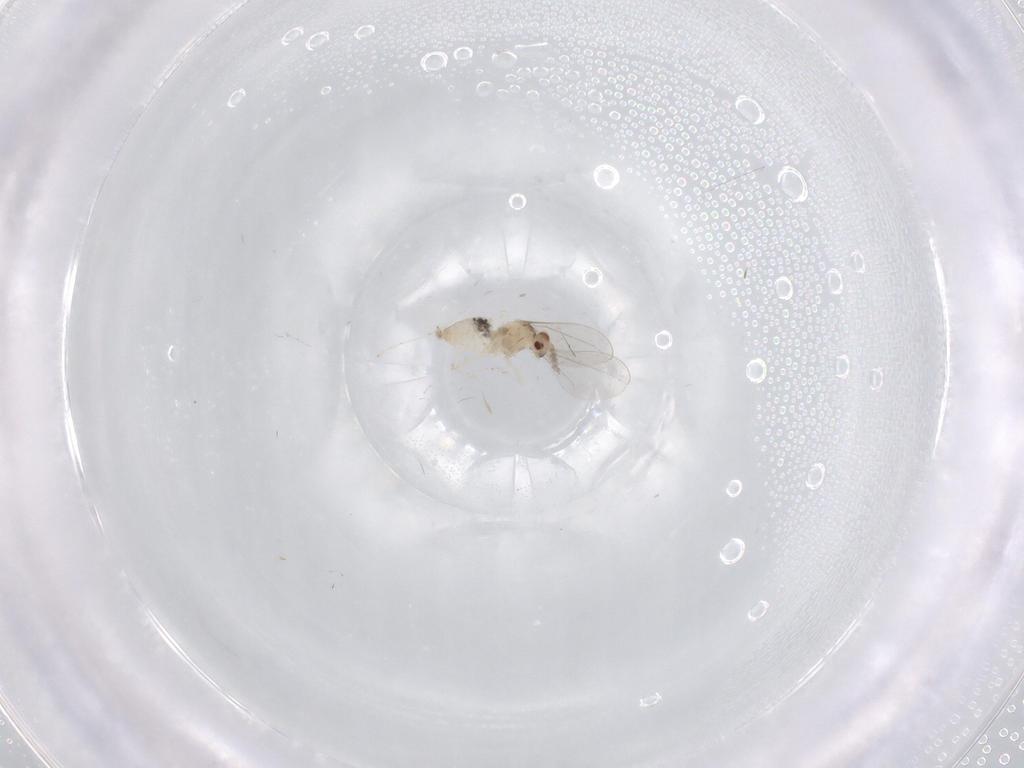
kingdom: Animalia
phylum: Arthropoda
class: Insecta
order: Diptera
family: Cecidomyiidae
